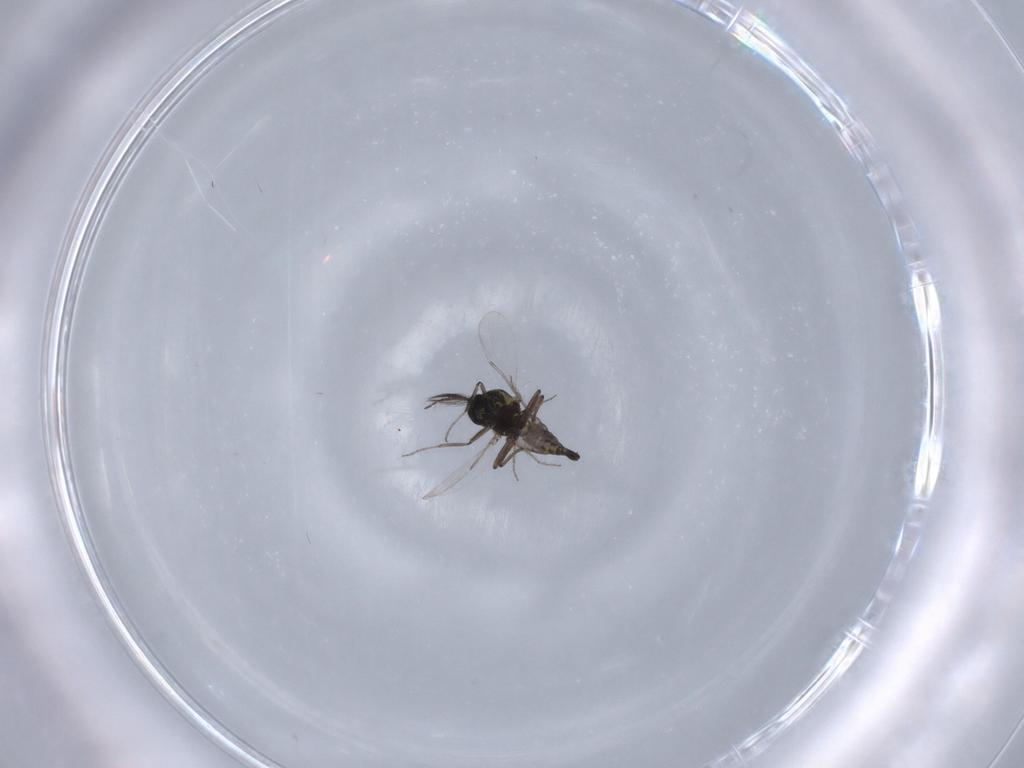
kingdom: Animalia
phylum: Arthropoda
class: Insecta
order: Diptera
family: Ceratopogonidae
